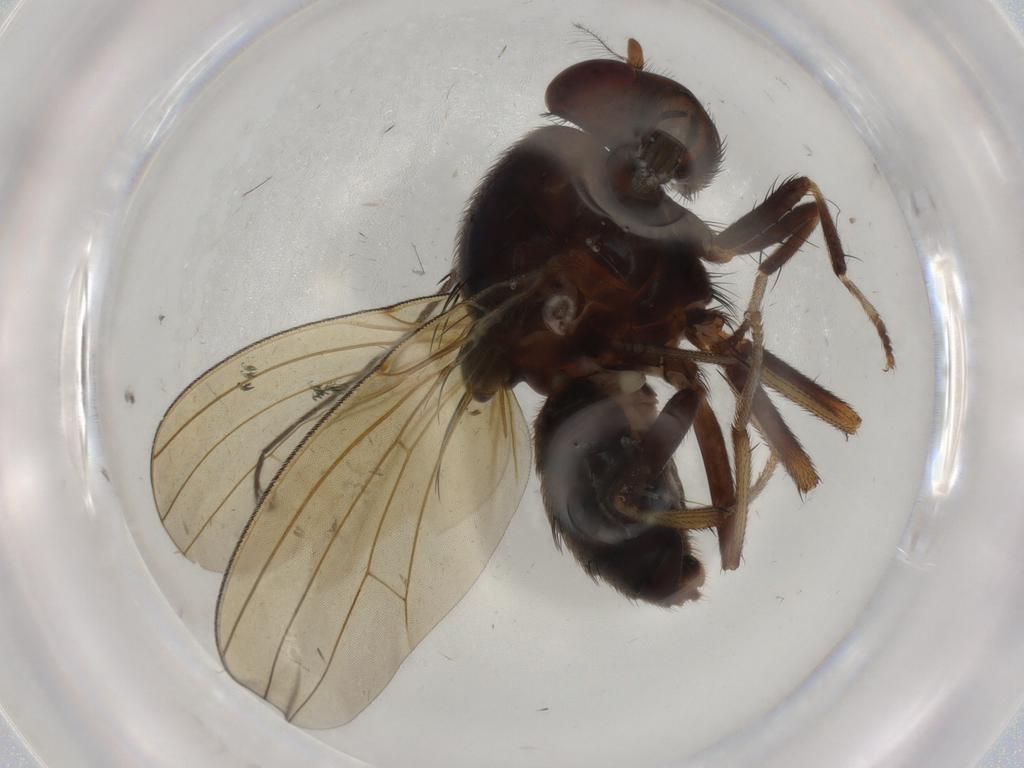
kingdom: Animalia
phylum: Arthropoda
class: Insecta
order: Diptera
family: Ditomyiidae
